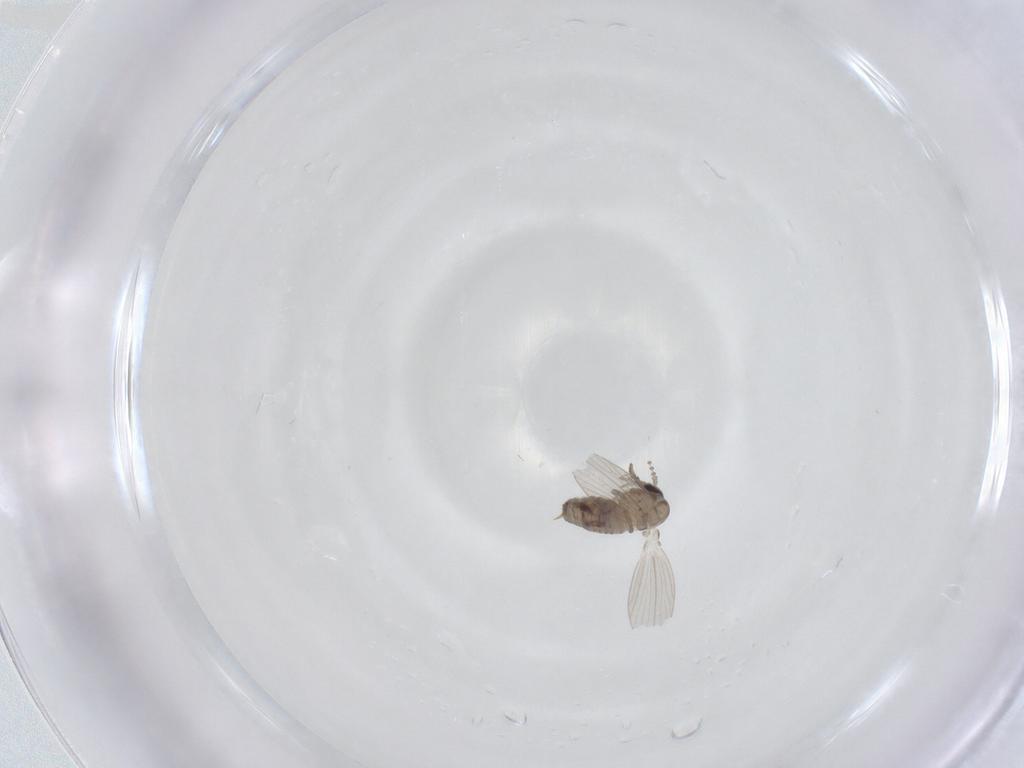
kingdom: Animalia
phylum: Arthropoda
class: Insecta
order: Diptera
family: Psychodidae
